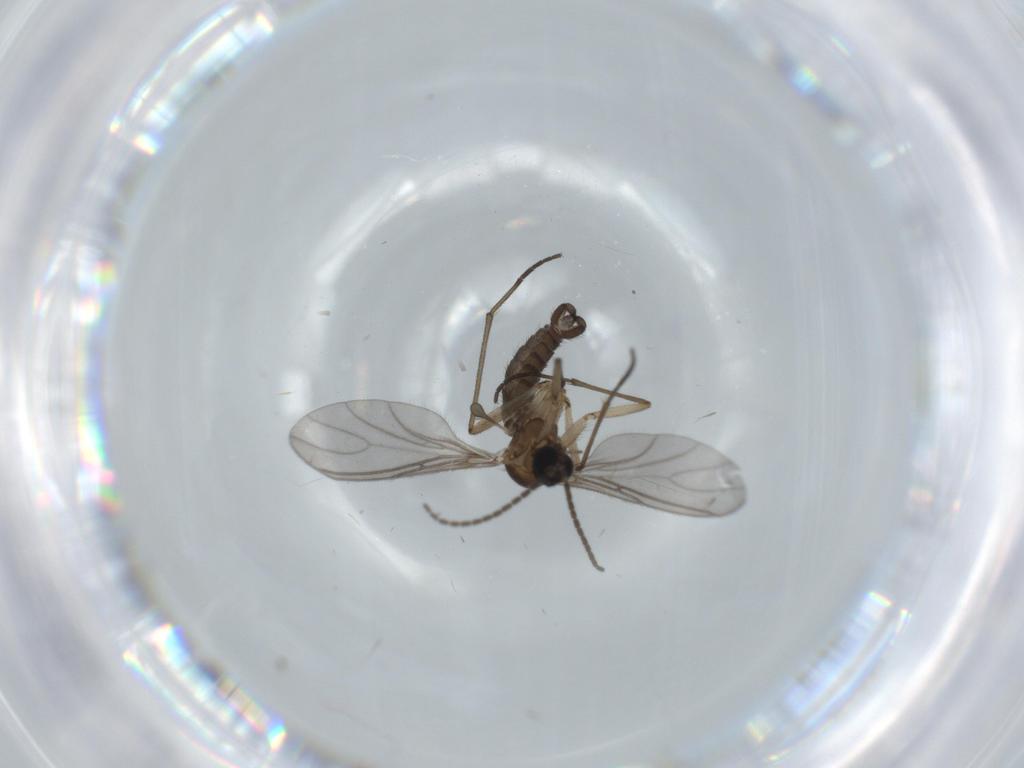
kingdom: Animalia
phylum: Arthropoda
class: Insecta
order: Diptera
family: Sciaridae
